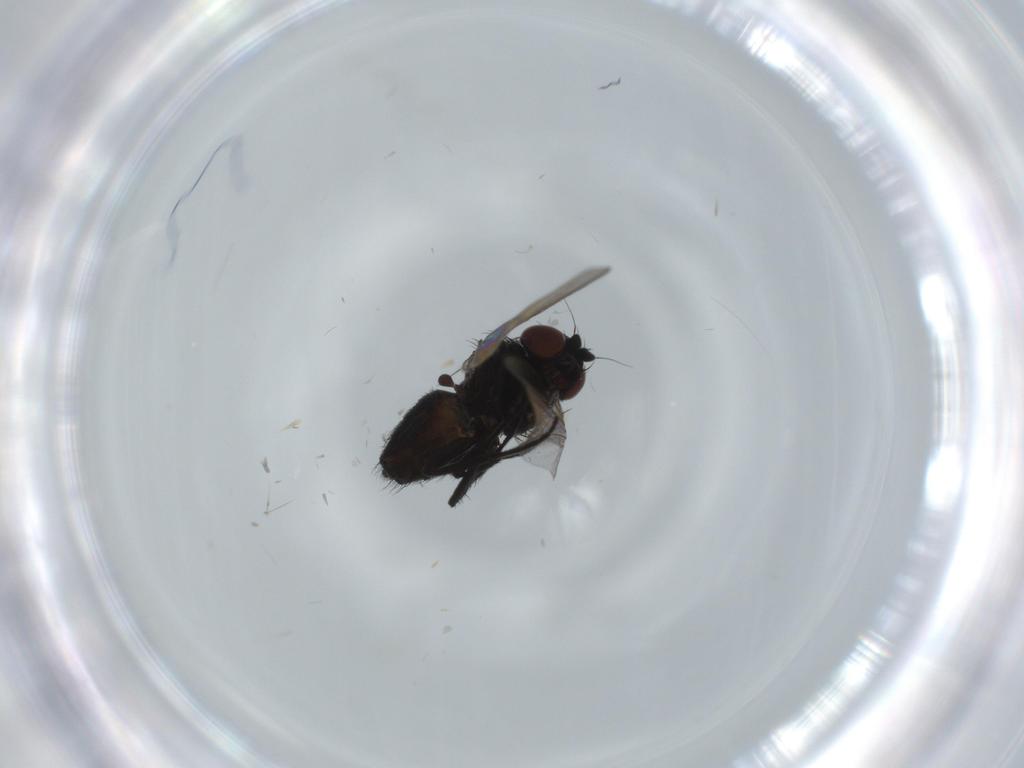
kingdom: Animalia
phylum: Arthropoda
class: Insecta
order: Diptera
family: Milichiidae
